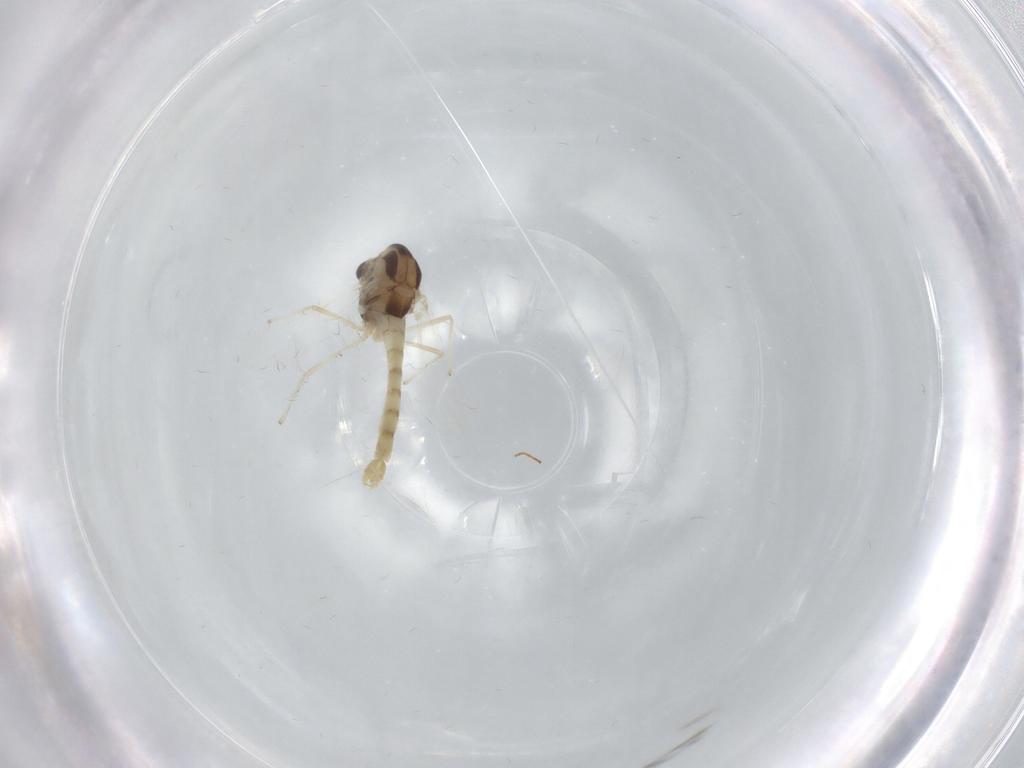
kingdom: Animalia
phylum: Arthropoda
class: Insecta
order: Diptera
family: Chironomidae
